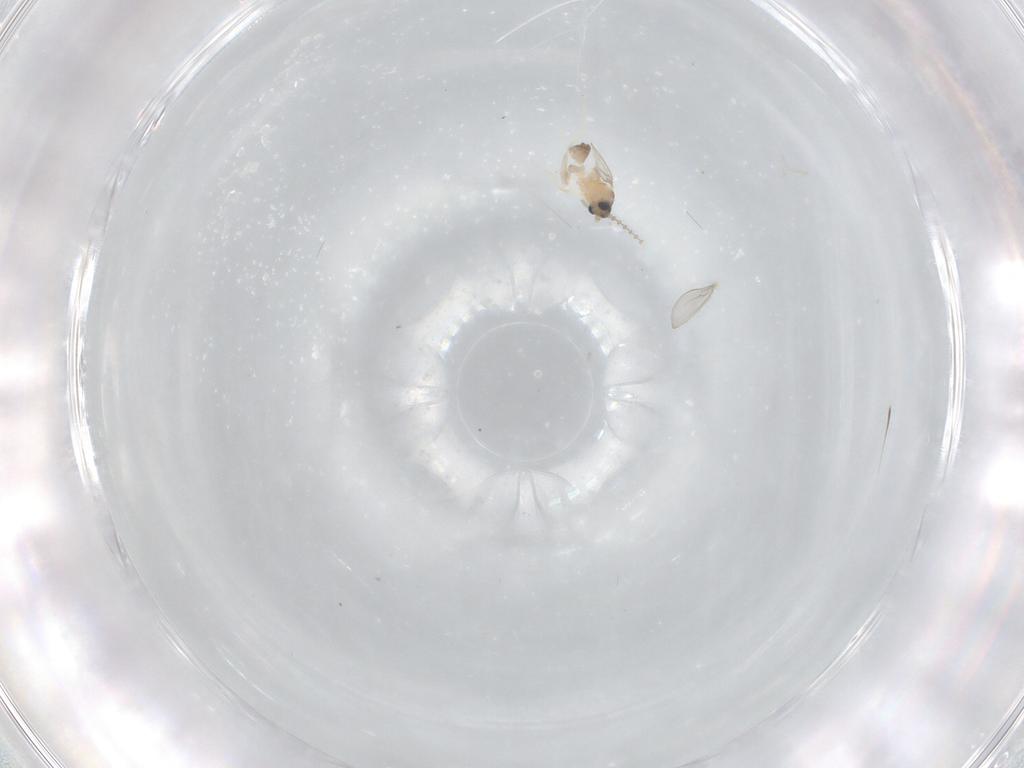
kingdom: Animalia
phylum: Arthropoda
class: Insecta
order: Diptera
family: Cecidomyiidae
